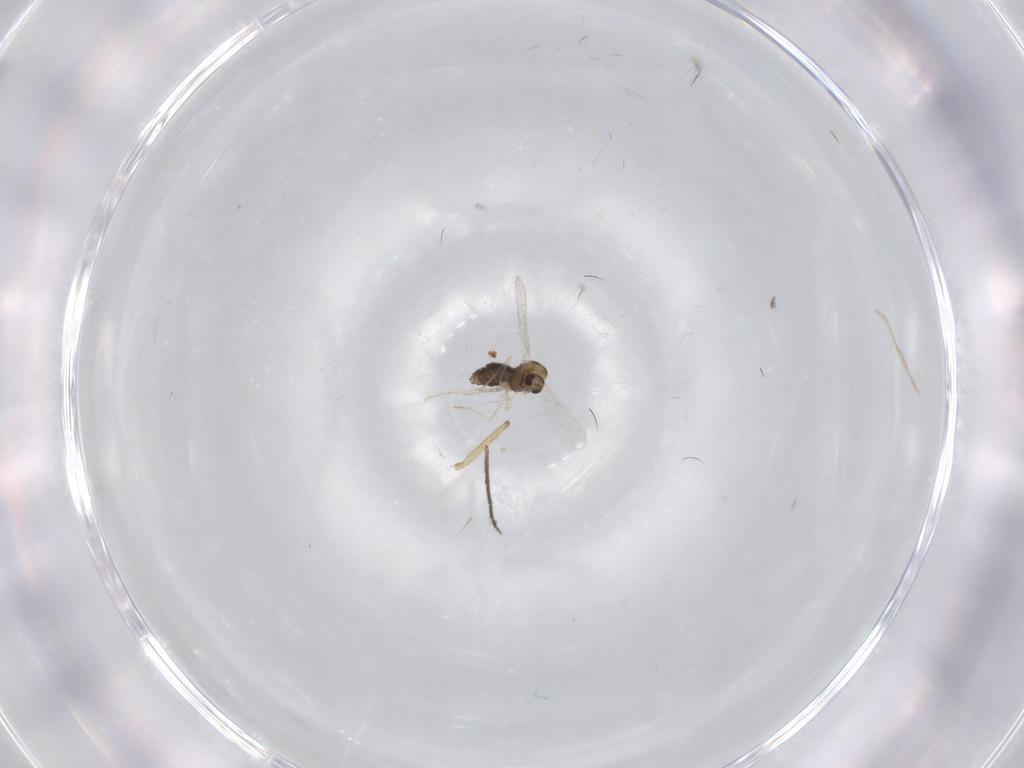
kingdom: Animalia
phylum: Arthropoda
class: Insecta
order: Diptera
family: Chironomidae
